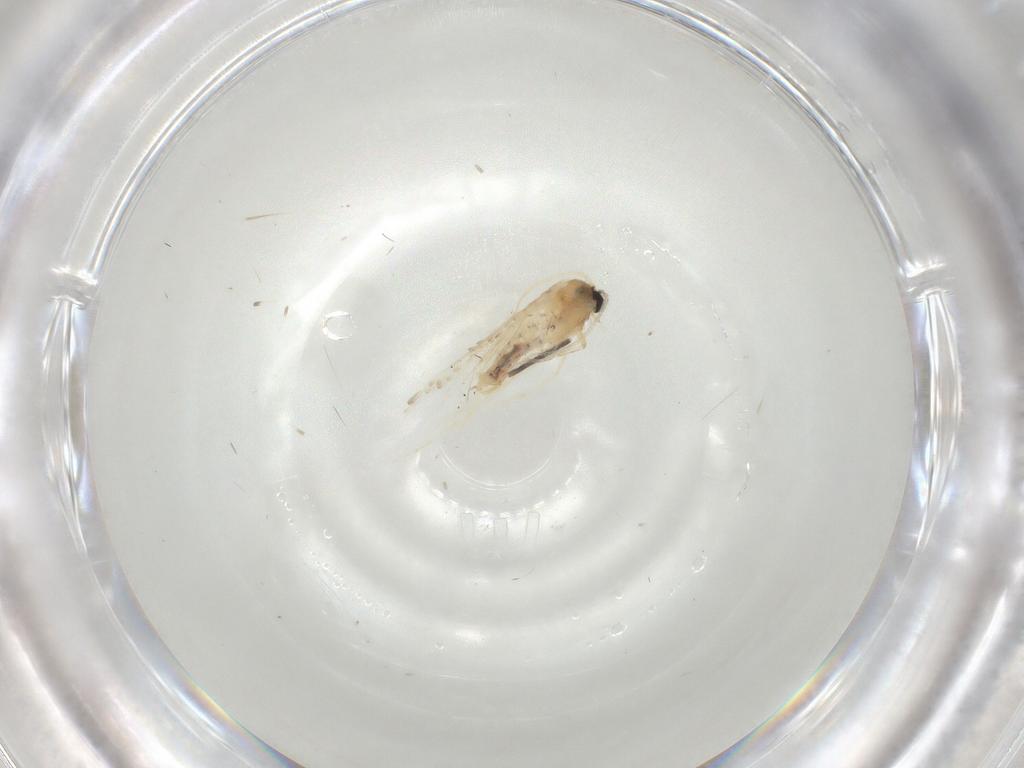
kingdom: Animalia
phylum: Arthropoda
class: Insecta
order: Lepidoptera
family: Nepticulidae
